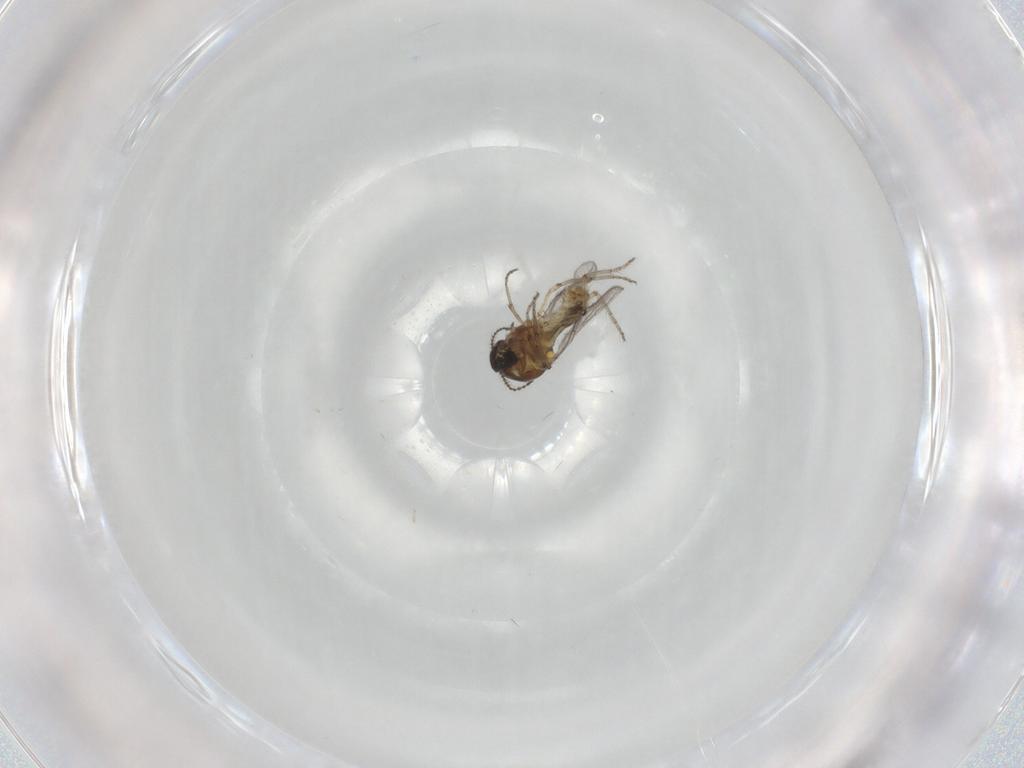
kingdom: Animalia
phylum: Arthropoda
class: Insecta
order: Diptera
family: Ceratopogonidae
